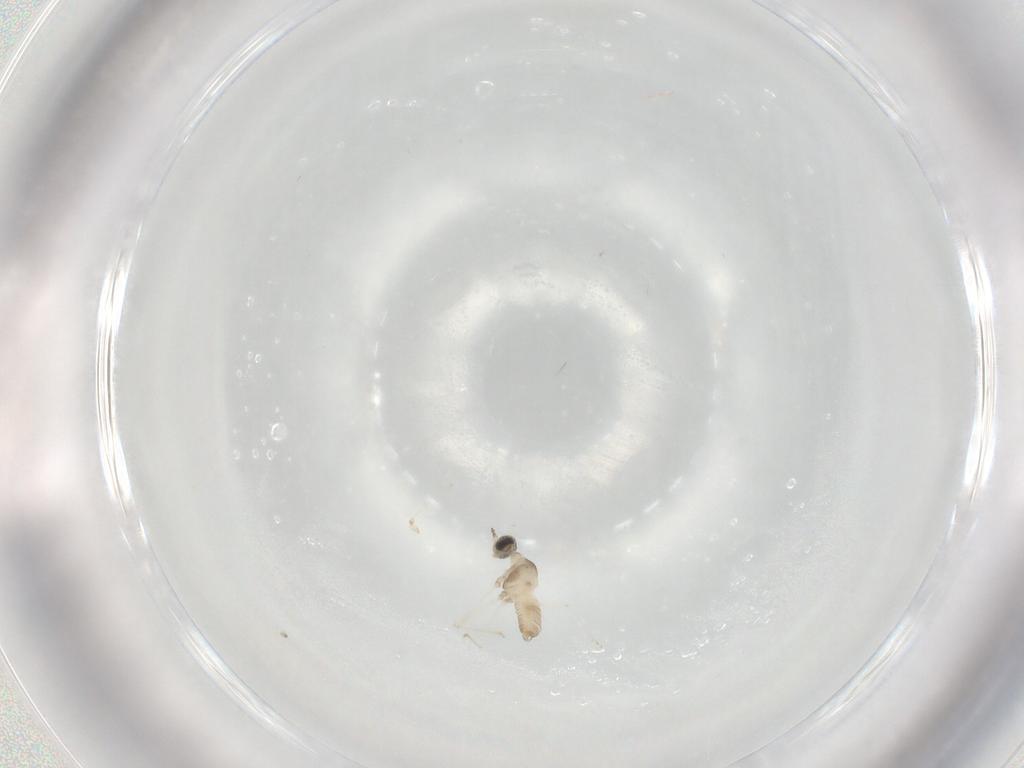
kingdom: Animalia
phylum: Arthropoda
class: Insecta
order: Diptera
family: Cecidomyiidae
